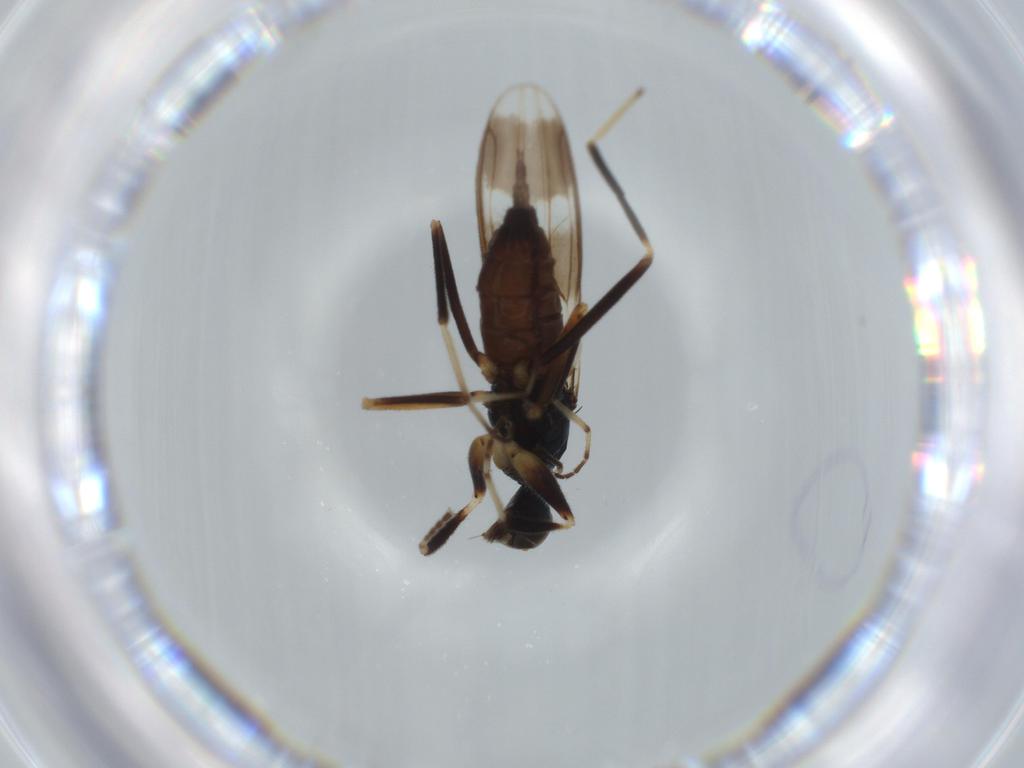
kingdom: Animalia
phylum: Arthropoda
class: Insecta
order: Diptera
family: Hybotidae
